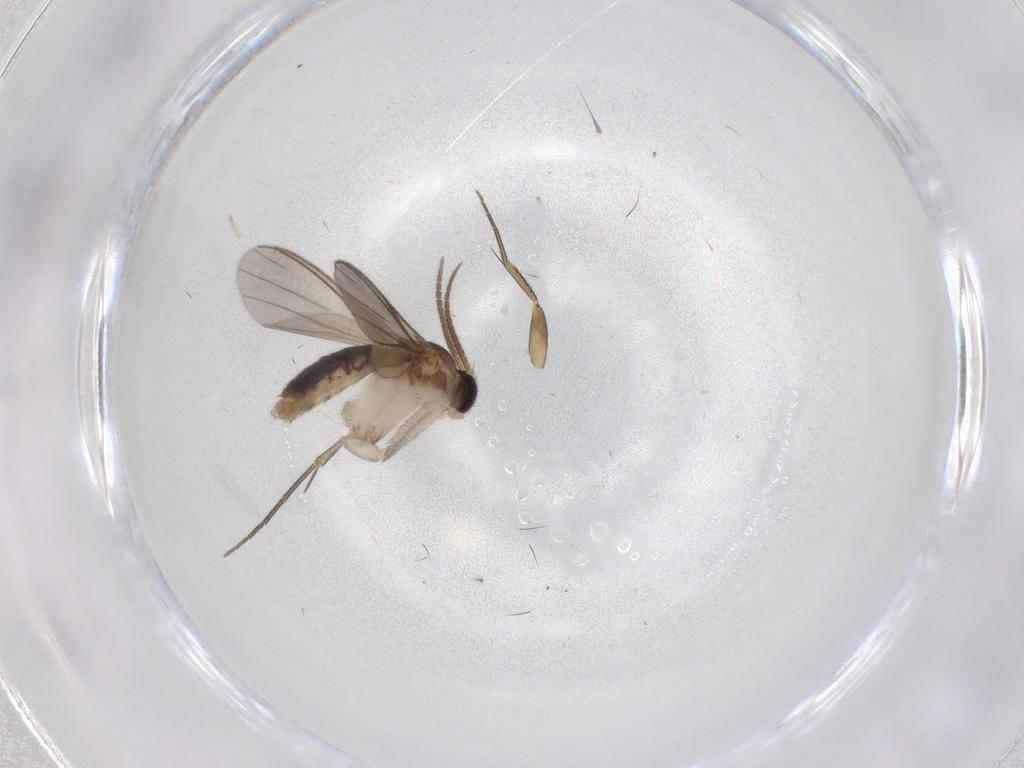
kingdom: Animalia
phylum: Arthropoda
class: Insecta
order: Diptera
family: Mycetophilidae
